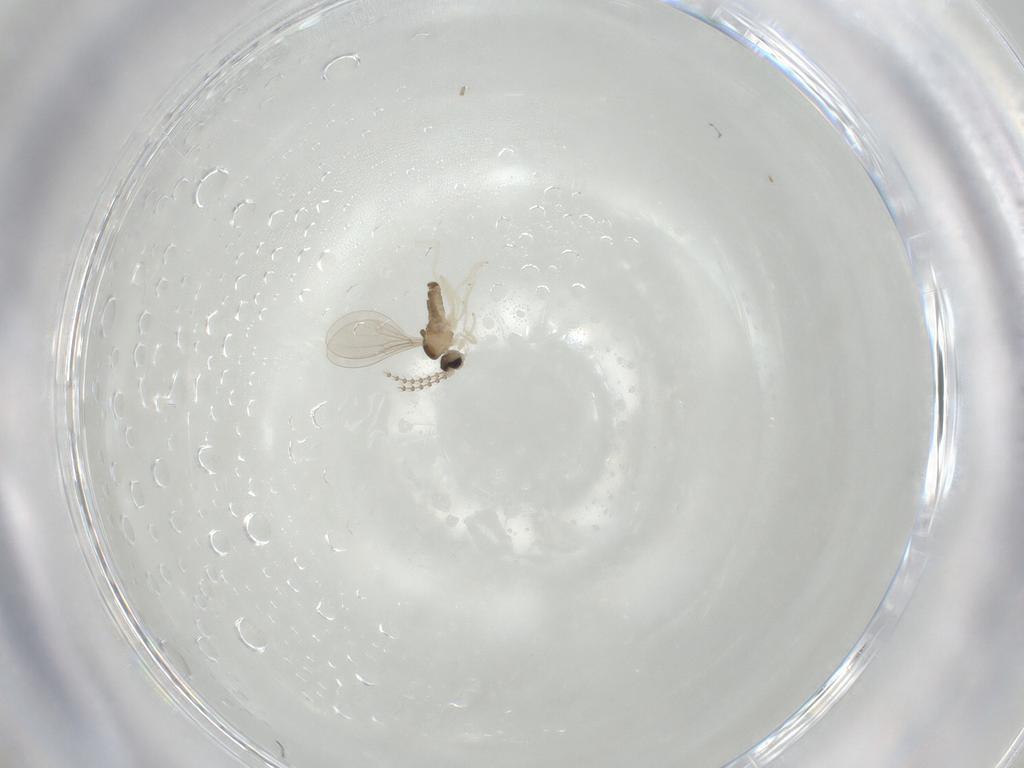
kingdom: Animalia
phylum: Arthropoda
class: Insecta
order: Diptera
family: Cecidomyiidae
